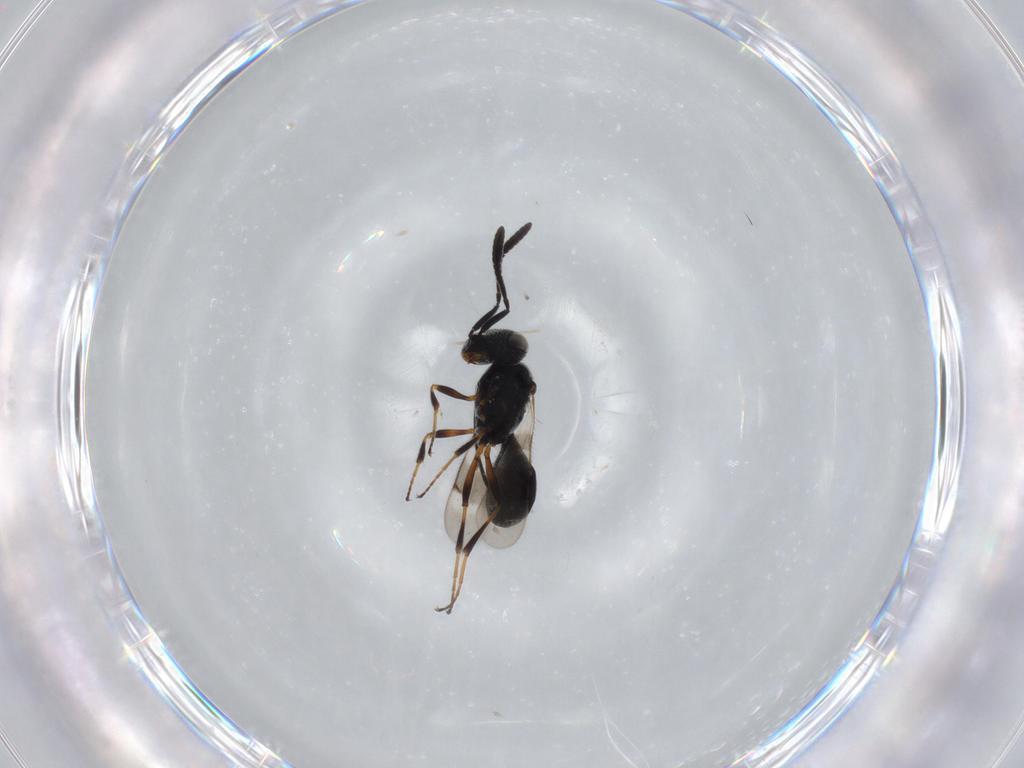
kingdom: Animalia
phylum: Arthropoda
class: Insecta
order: Hymenoptera
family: Scelionidae
